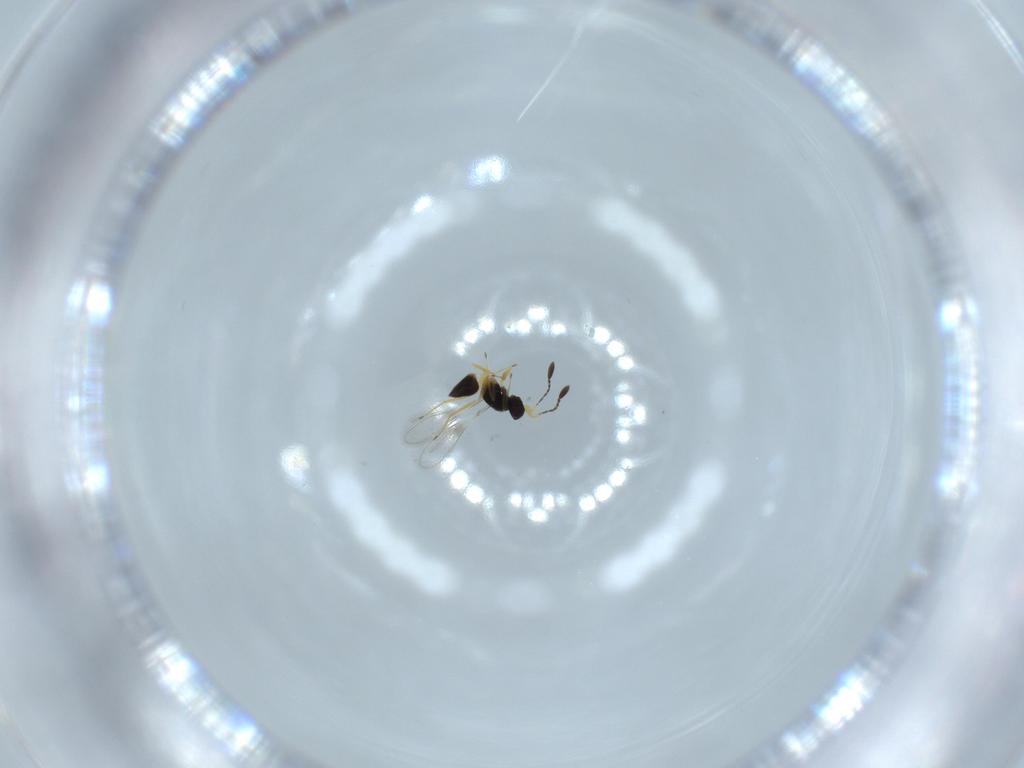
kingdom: Animalia
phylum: Arthropoda
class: Insecta
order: Hymenoptera
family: Mymaridae
